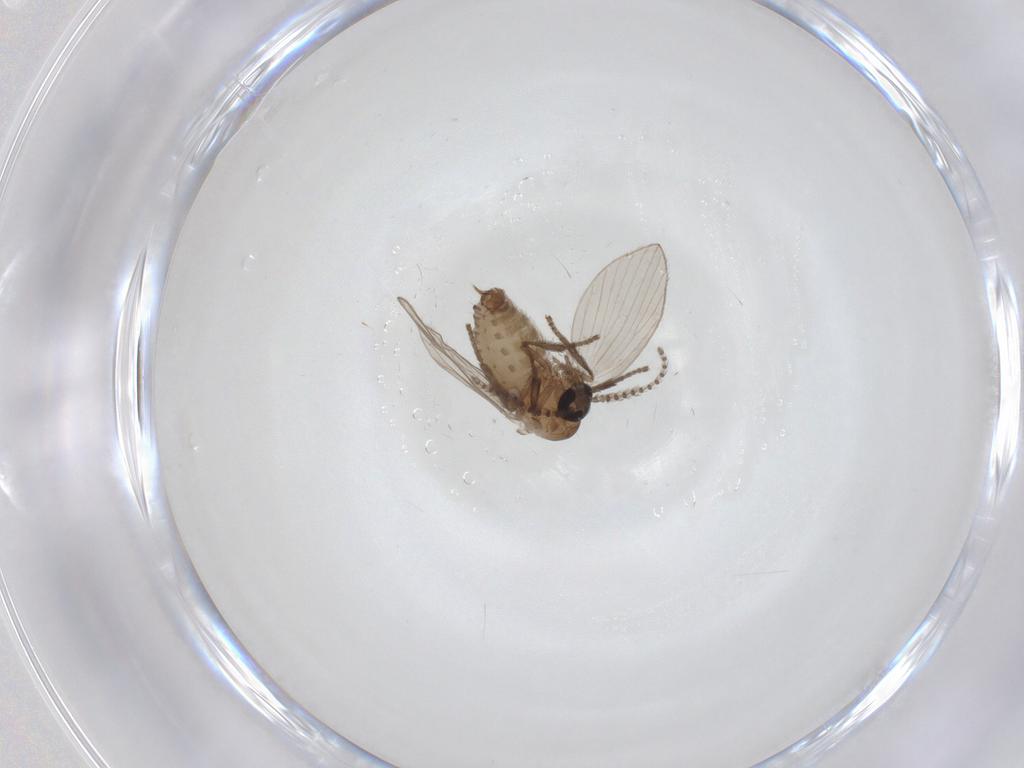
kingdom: Animalia
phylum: Arthropoda
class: Insecta
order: Diptera
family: Psychodidae
